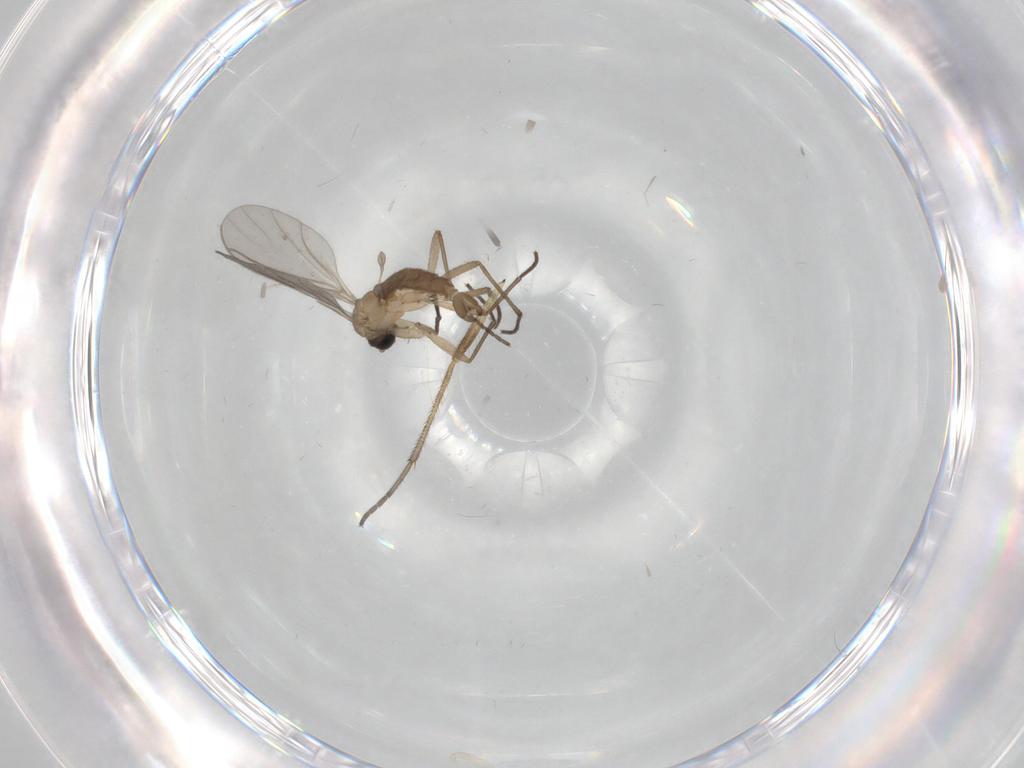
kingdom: Animalia
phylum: Arthropoda
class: Insecta
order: Diptera
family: Sciaridae
